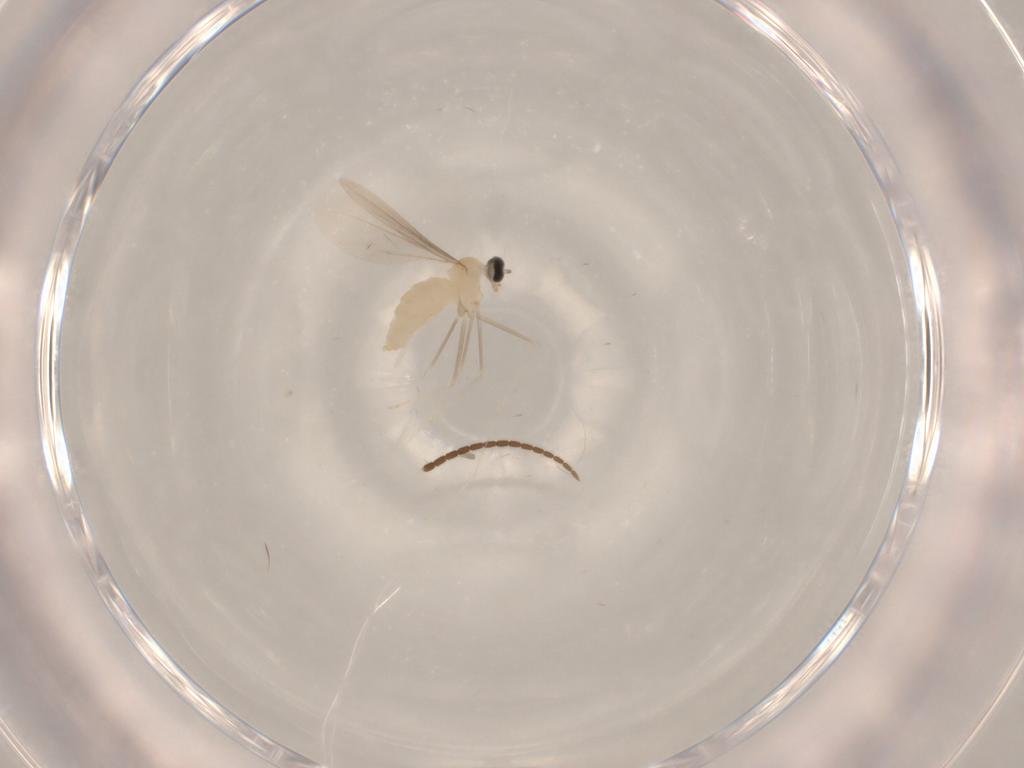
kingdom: Animalia
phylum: Arthropoda
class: Insecta
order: Diptera
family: Cecidomyiidae
